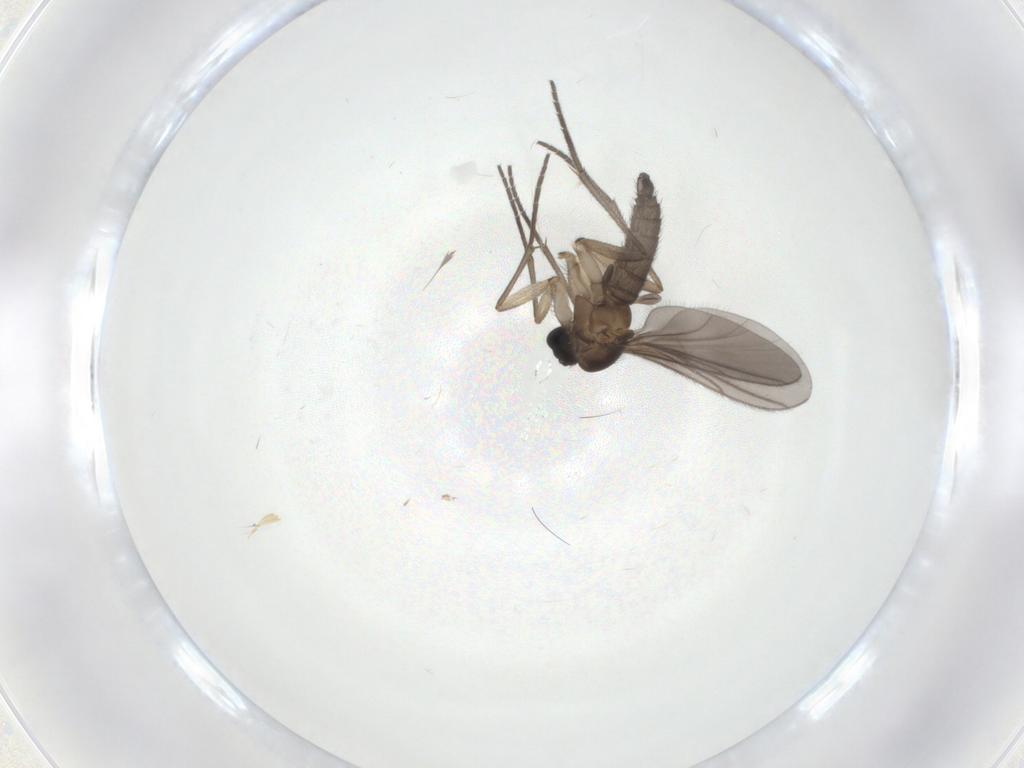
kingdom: Animalia
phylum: Arthropoda
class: Insecta
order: Diptera
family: Sciaridae
